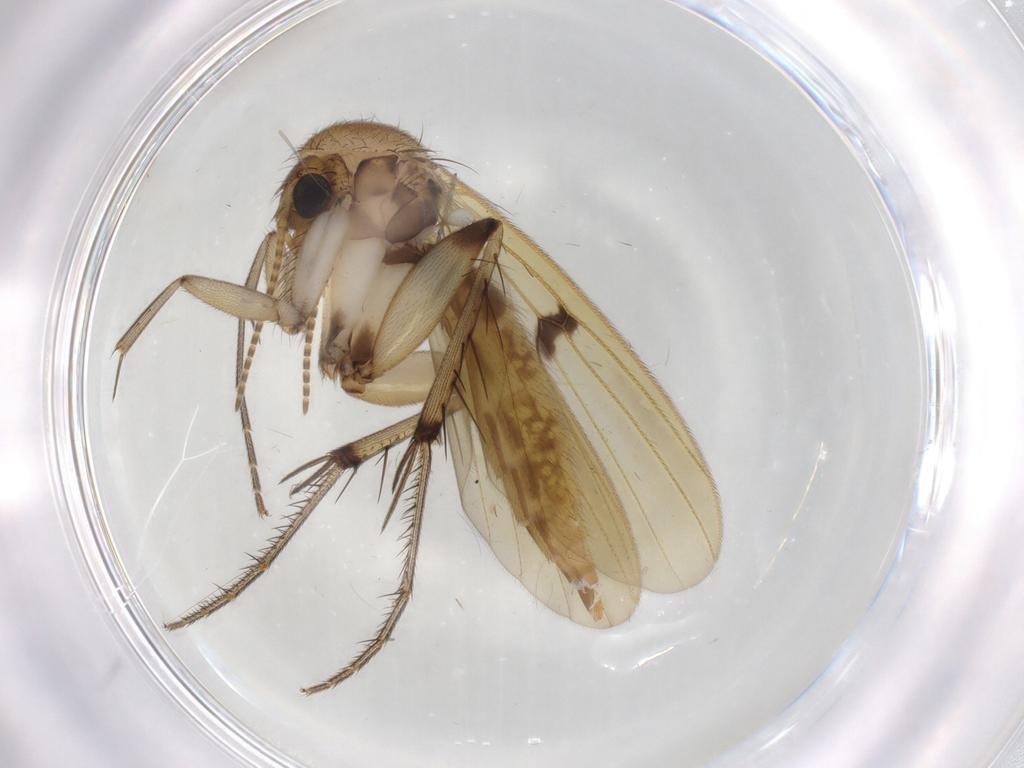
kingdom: Animalia
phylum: Arthropoda
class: Insecta
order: Diptera
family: Mycetophilidae
